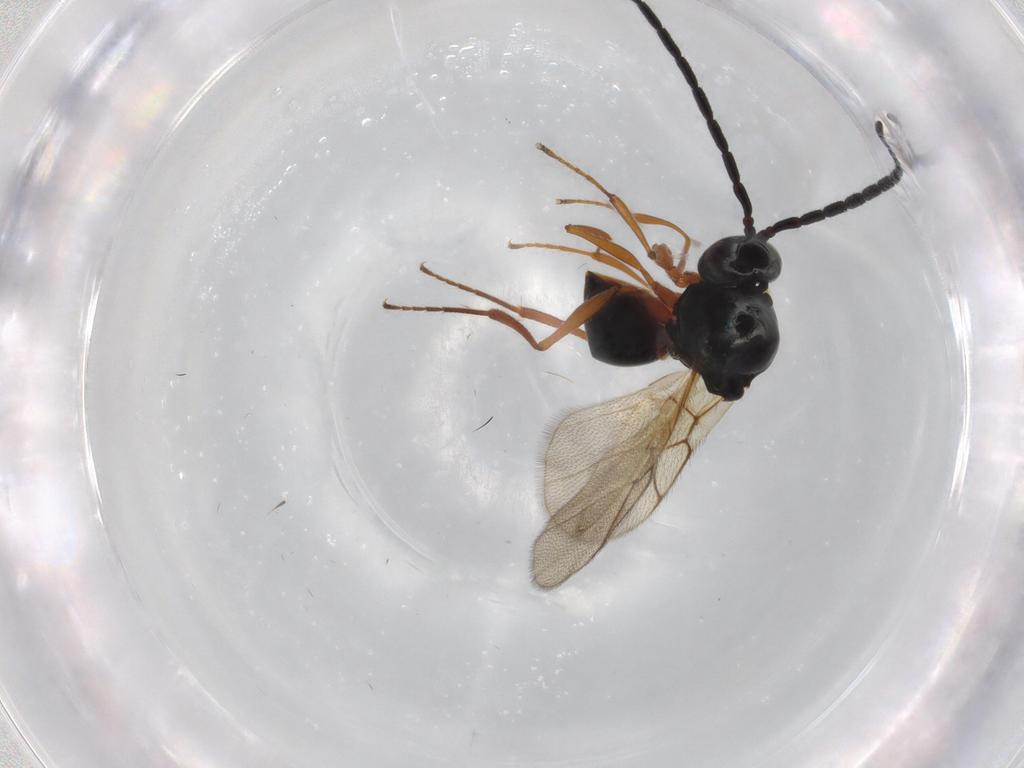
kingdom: Animalia
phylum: Arthropoda
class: Insecta
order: Hymenoptera
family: Figitidae
